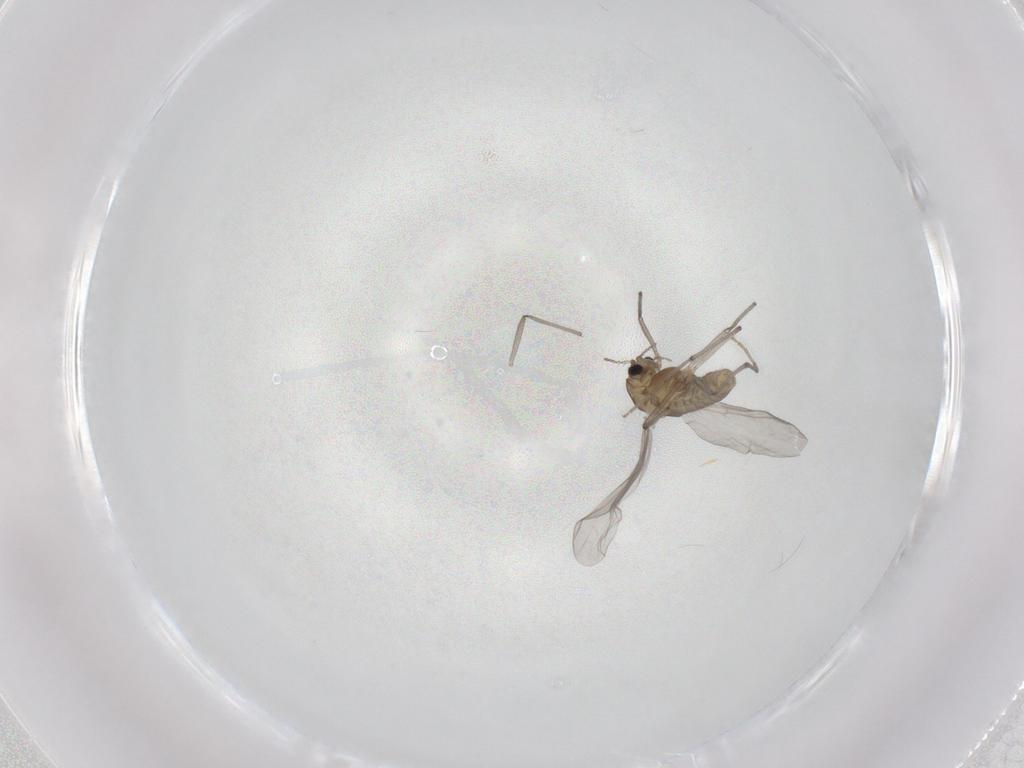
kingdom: Animalia
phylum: Arthropoda
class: Insecta
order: Diptera
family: Chironomidae
